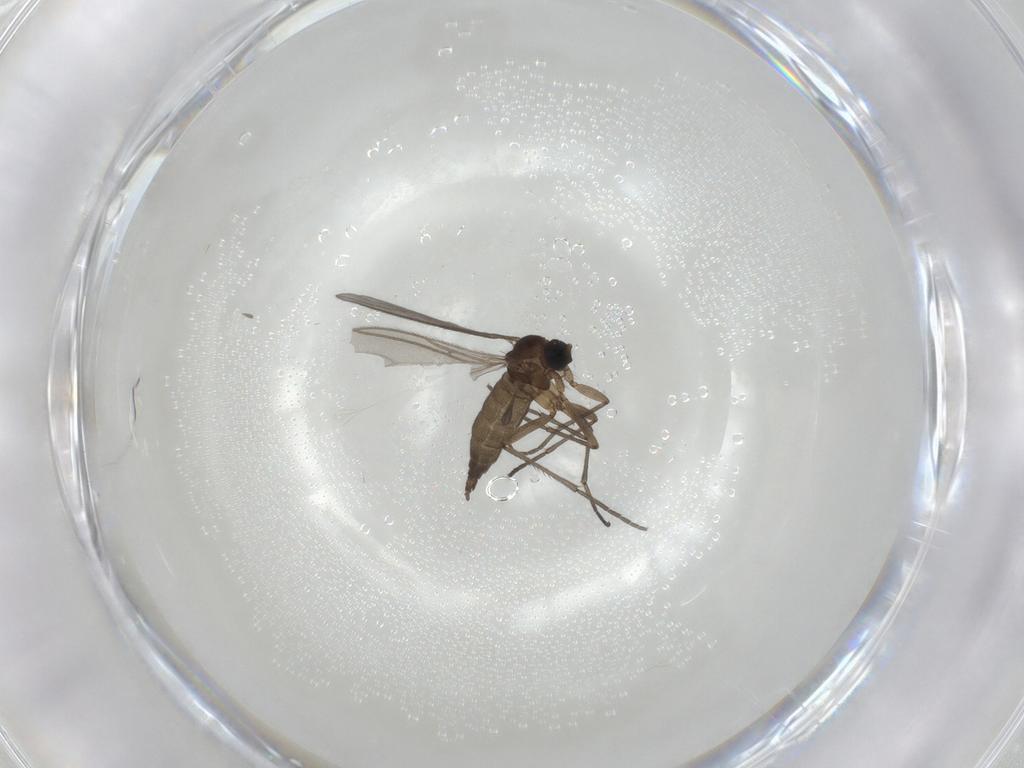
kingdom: Animalia
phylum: Arthropoda
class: Insecta
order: Diptera
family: Sciaridae
